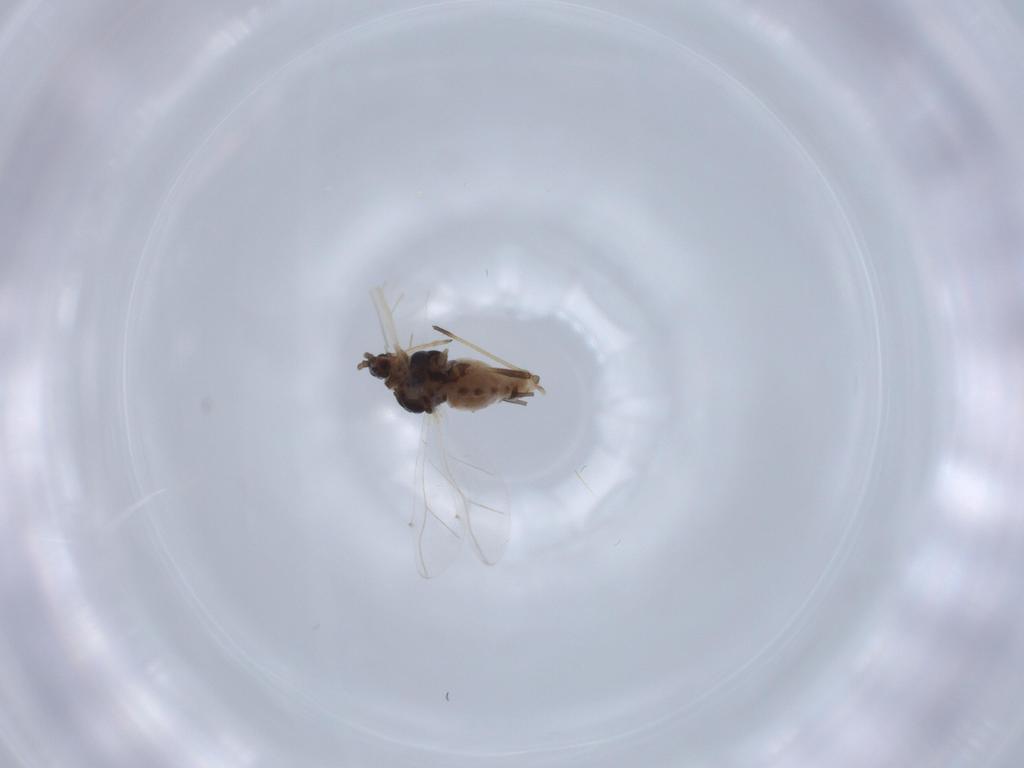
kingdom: Animalia
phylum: Arthropoda
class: Insecta
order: Hemiptera
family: Aphididae
